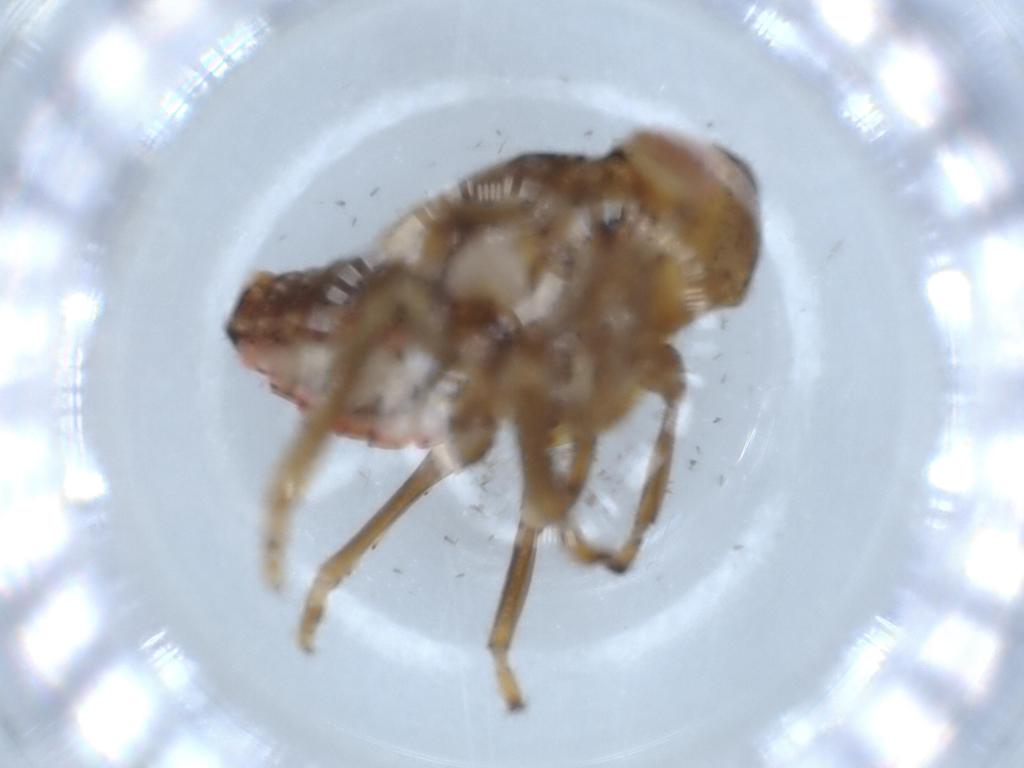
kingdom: Animalia
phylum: Arthropoda
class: Insecta
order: Hemiptera
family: Issidae
